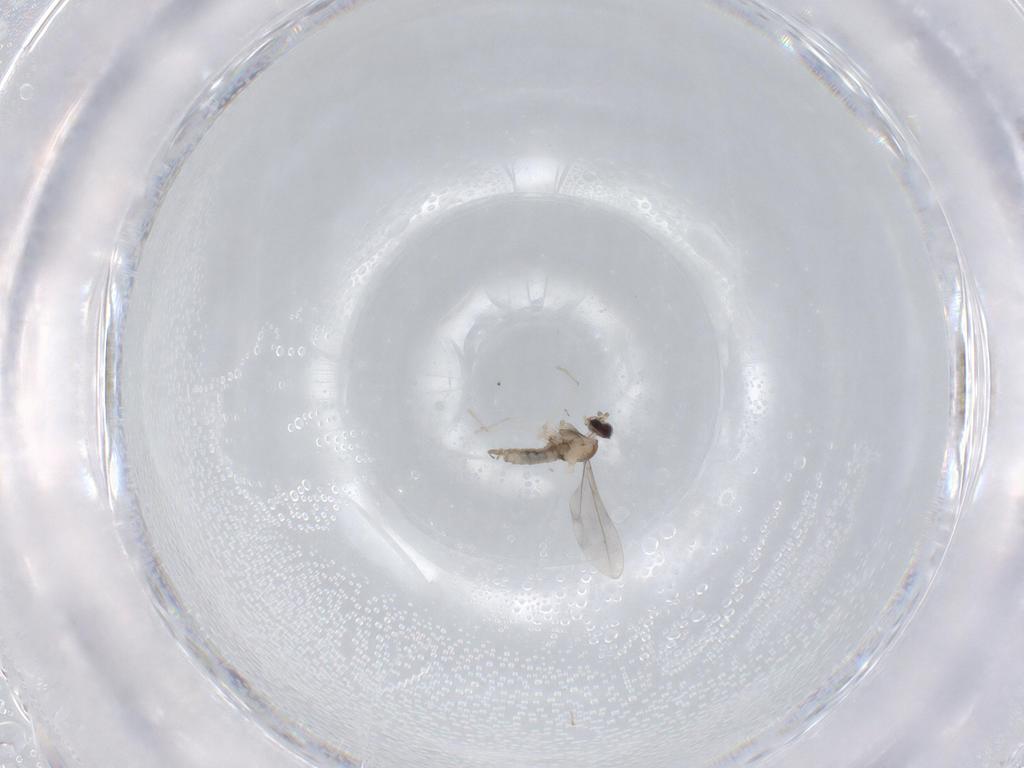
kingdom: Animalia
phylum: Arthropoda
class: Insecta
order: Diptera
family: Cecidomyiidae
